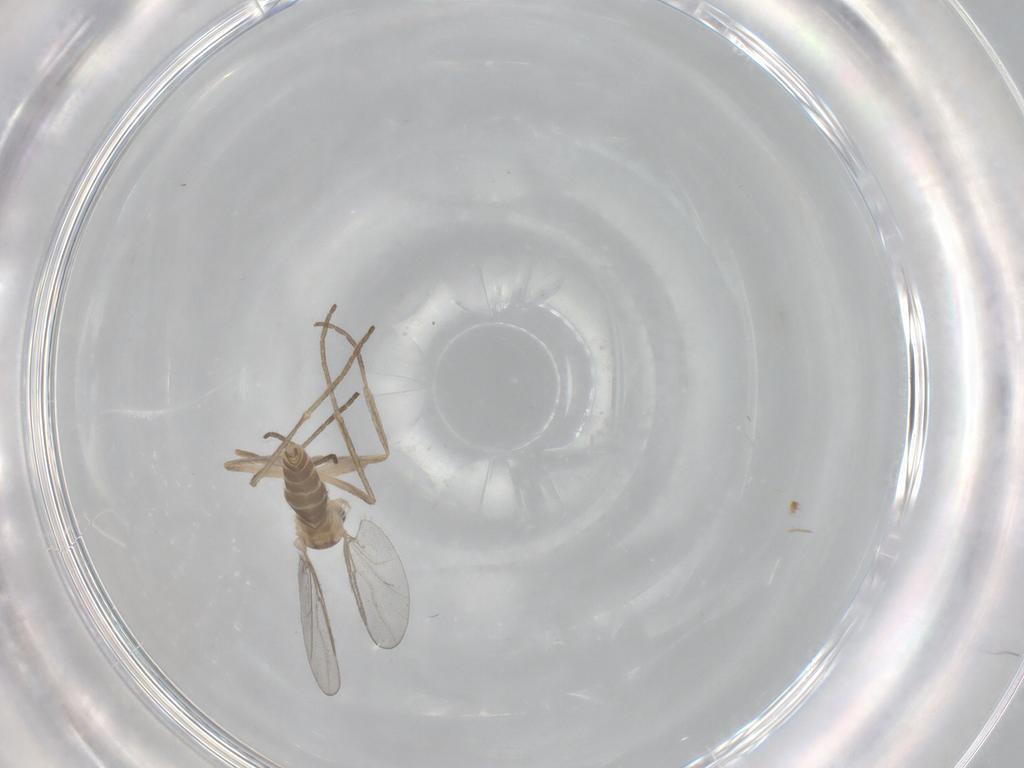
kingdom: Animalia
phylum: Arthropoda
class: Insecta
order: Diptera
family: Cecidomyiidae
